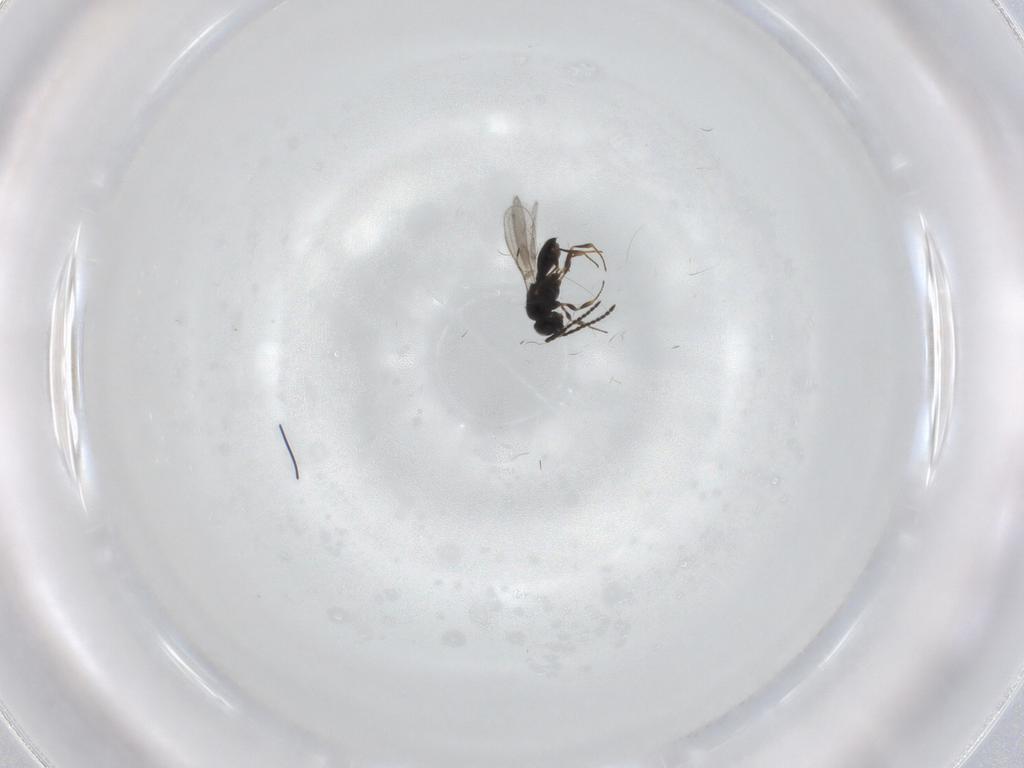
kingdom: Animalia
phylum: Arthropoda
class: Insecta
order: Hymenoptera
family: Scelionidae
